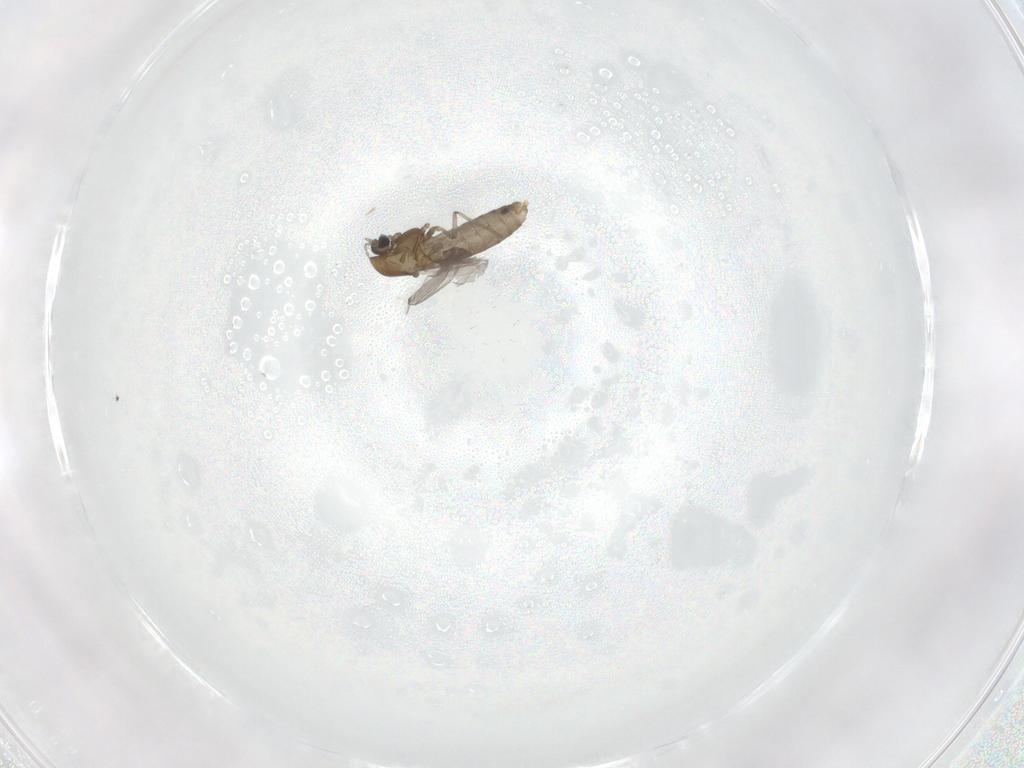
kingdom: Animalia
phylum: Arthropoda
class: Insecta
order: Diptera
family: Chironomidae
